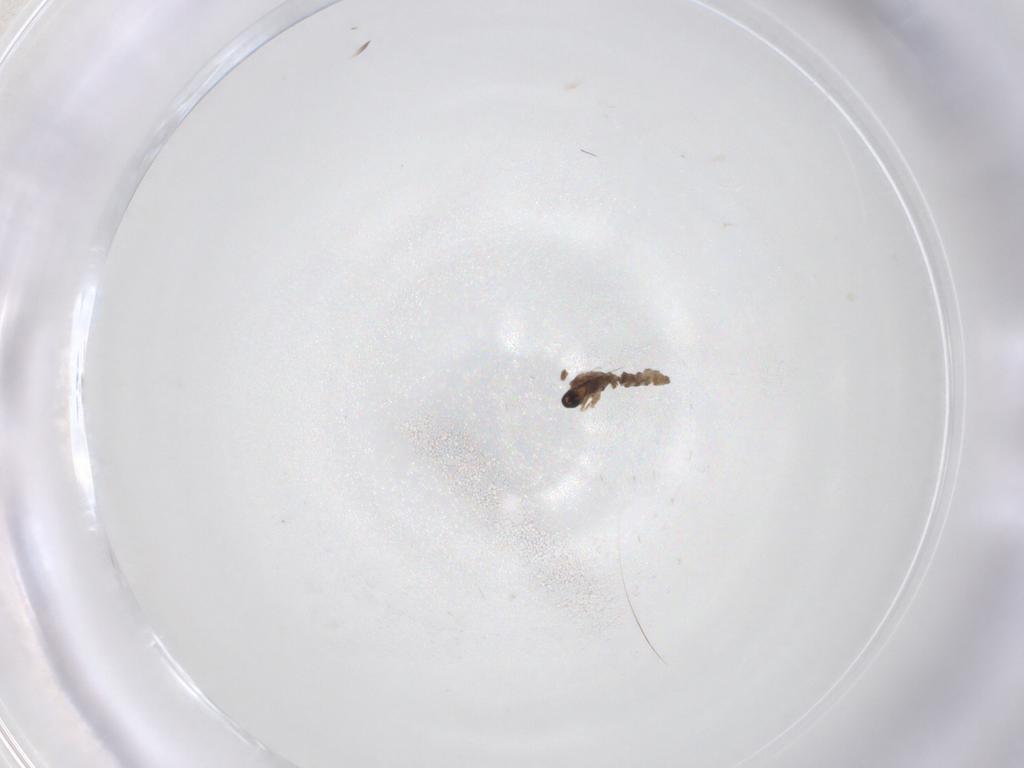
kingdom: Animalia
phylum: Arthropoda
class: Insecta
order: Diptera
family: Cecidomyiidae
